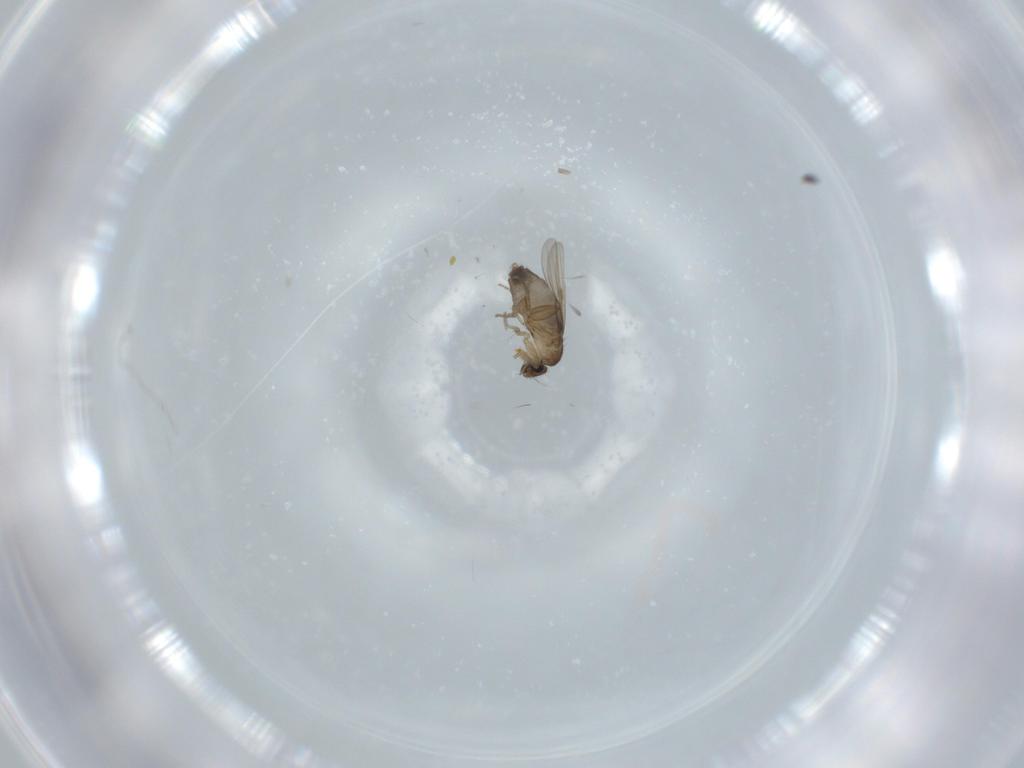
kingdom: Animalia
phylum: Arthropoda
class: Insecta
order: Diptera
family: Phoridae
